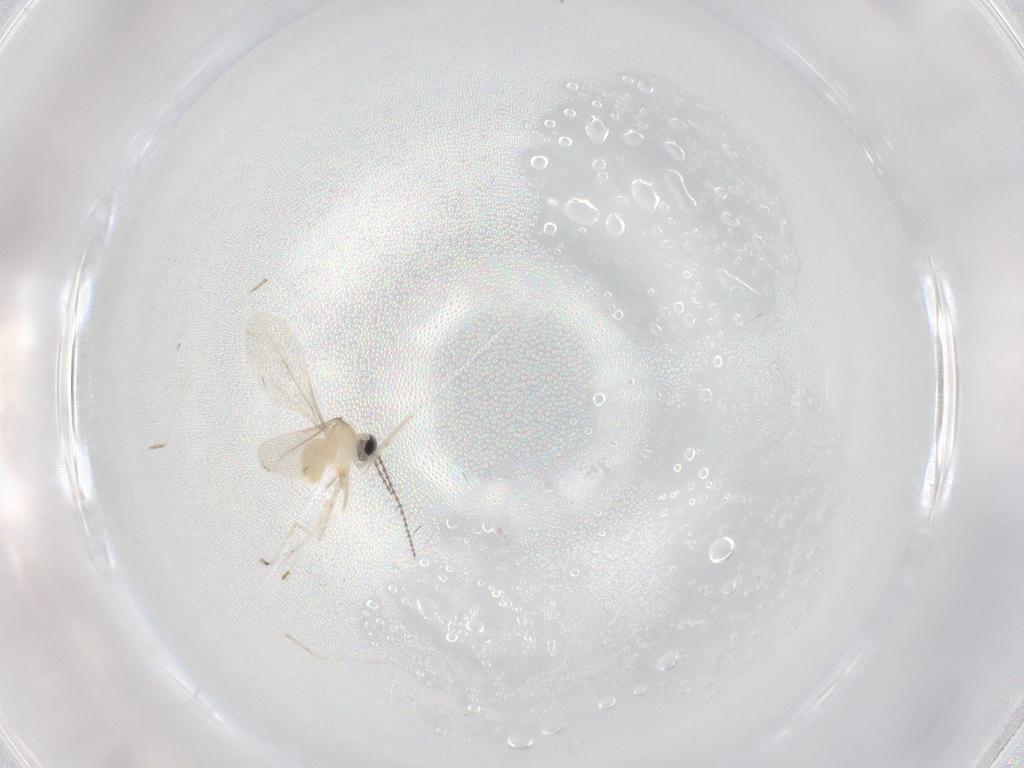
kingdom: Animalia
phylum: Arthropoda
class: Insecta
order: Diptera
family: Cecidomyiidae
